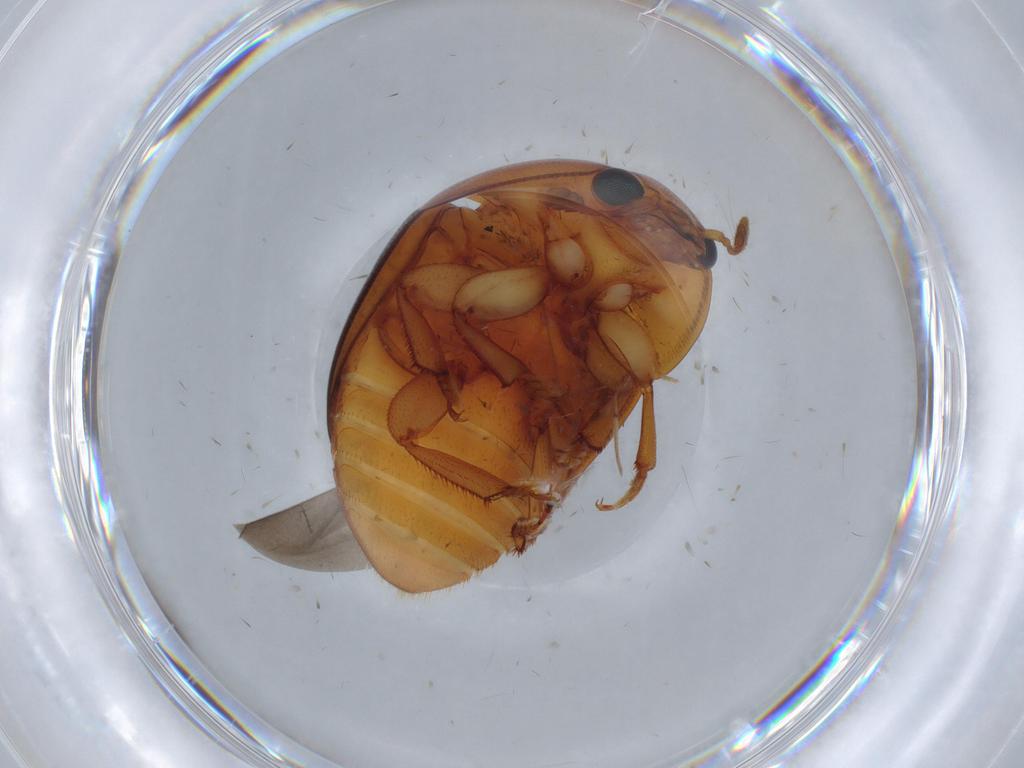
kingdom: Animalia
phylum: Arthropoda
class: Insecta
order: Coleoptera
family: Nitidulidae
